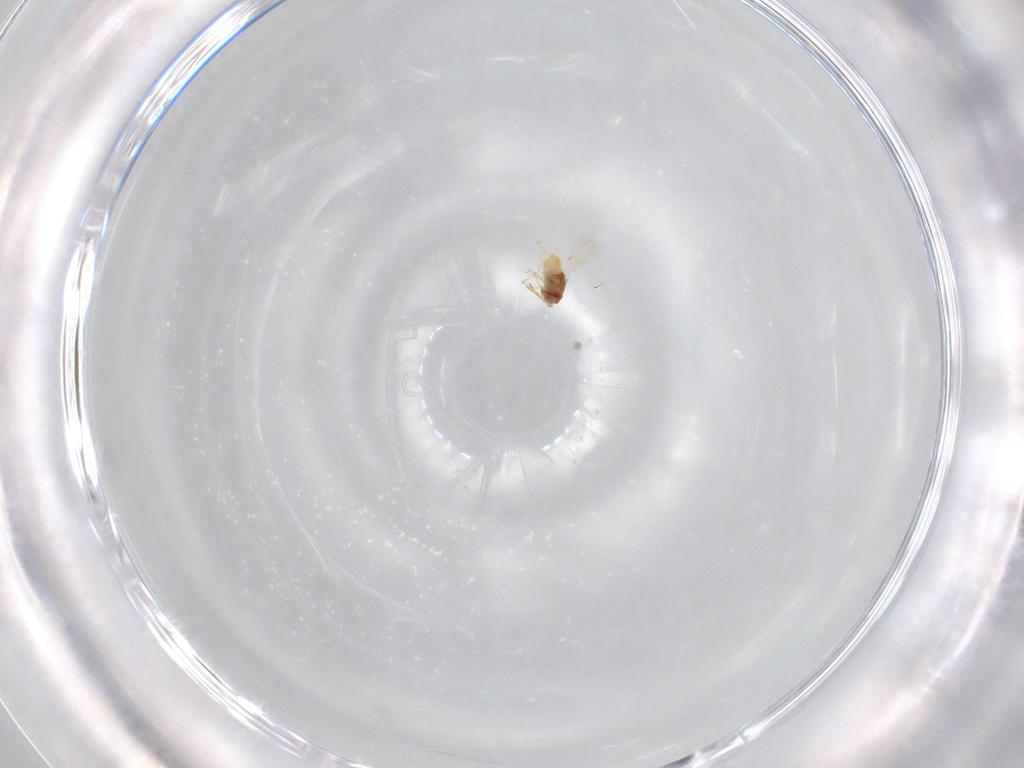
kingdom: Animalia
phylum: Arthropoda
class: Insecta
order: Hymenoptera
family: Aphelinidae
